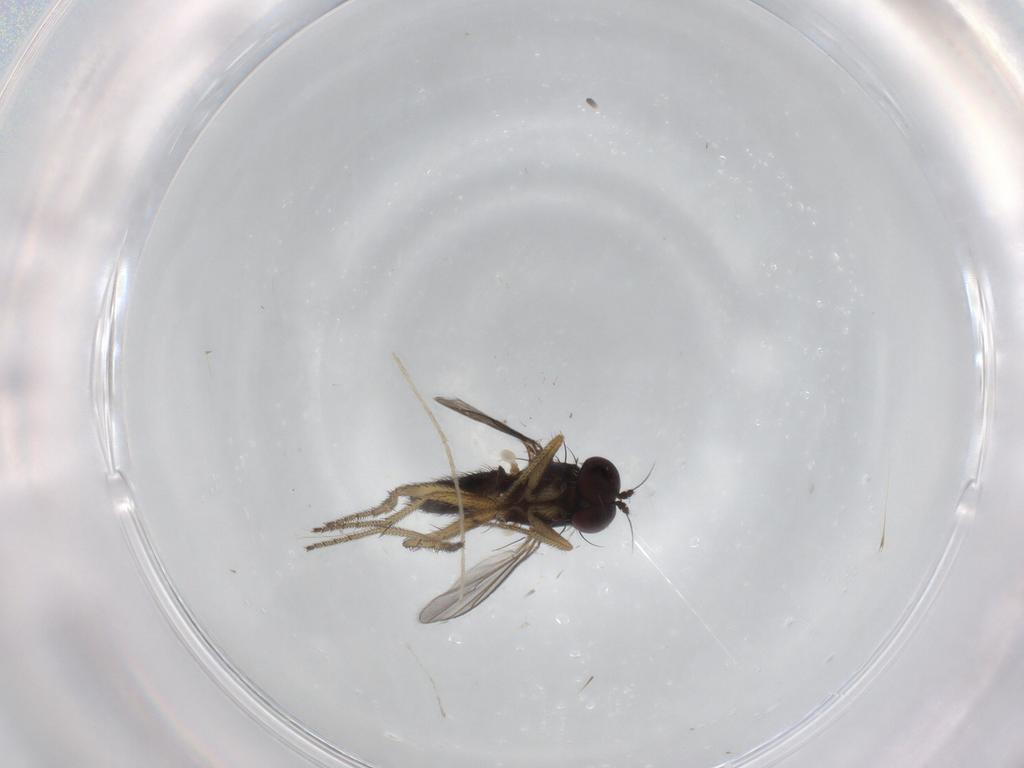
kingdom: Animalia
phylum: Arthropoda
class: Insecta
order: Diptera
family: Cecidomyiidae
